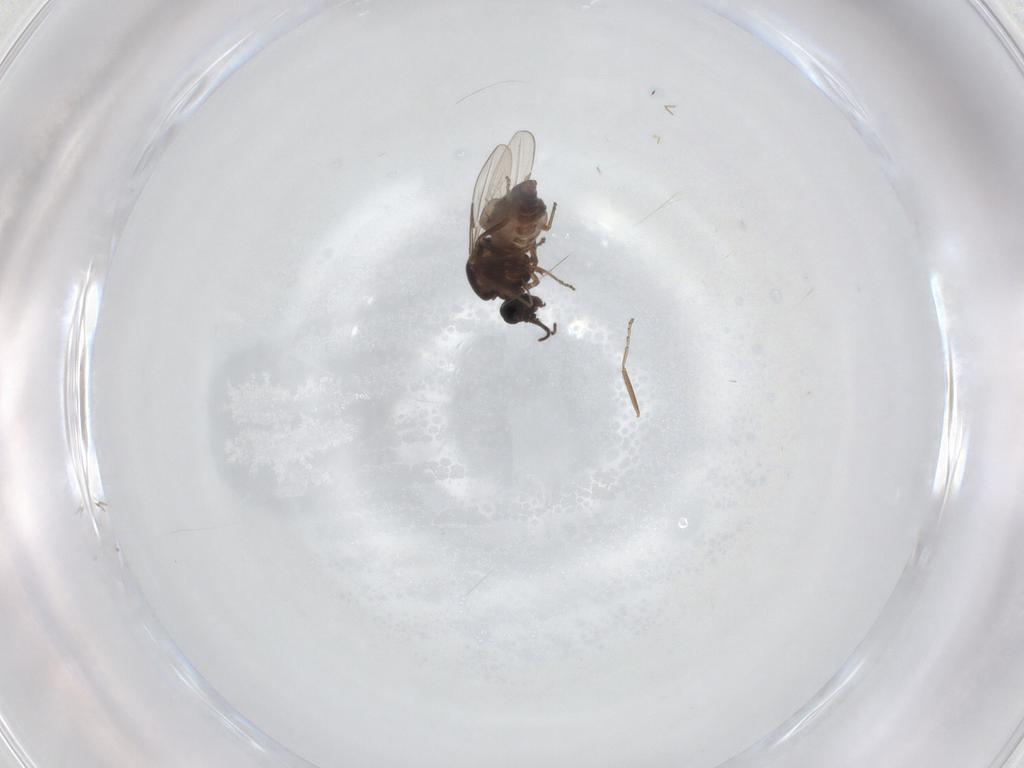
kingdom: Animalia
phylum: Arthropoda
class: Insecta
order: Diptera
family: Ceratopogonidae
